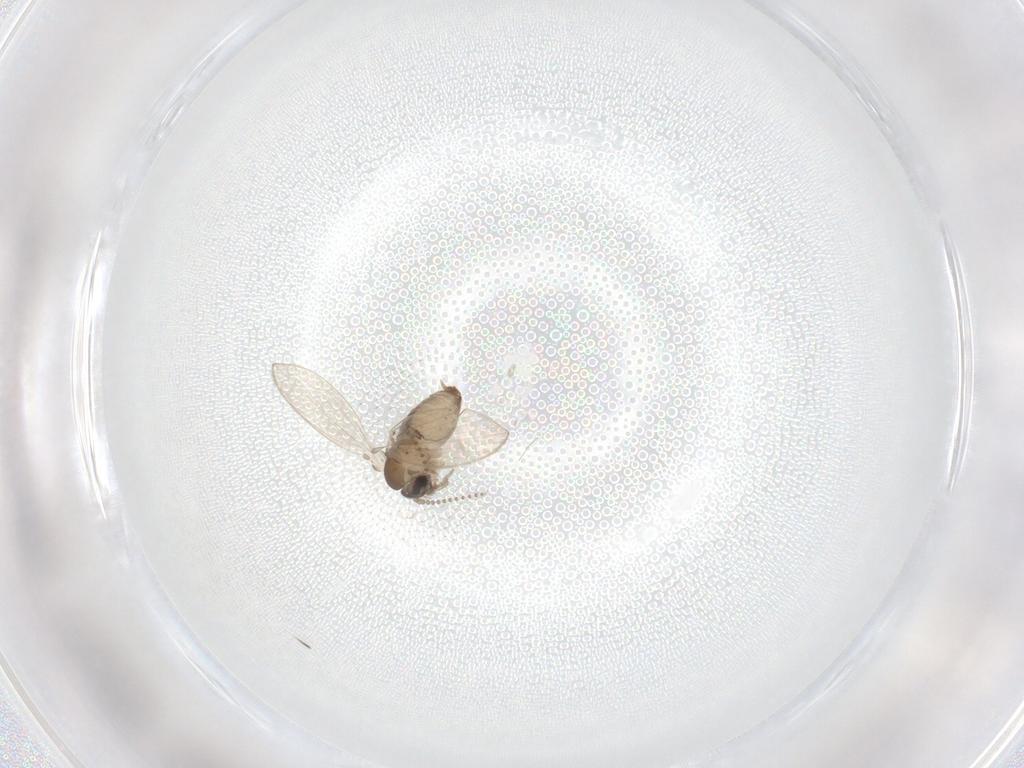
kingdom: Animalia
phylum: Arthropoda
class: Insecta
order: Diptera
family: Psychodidae
